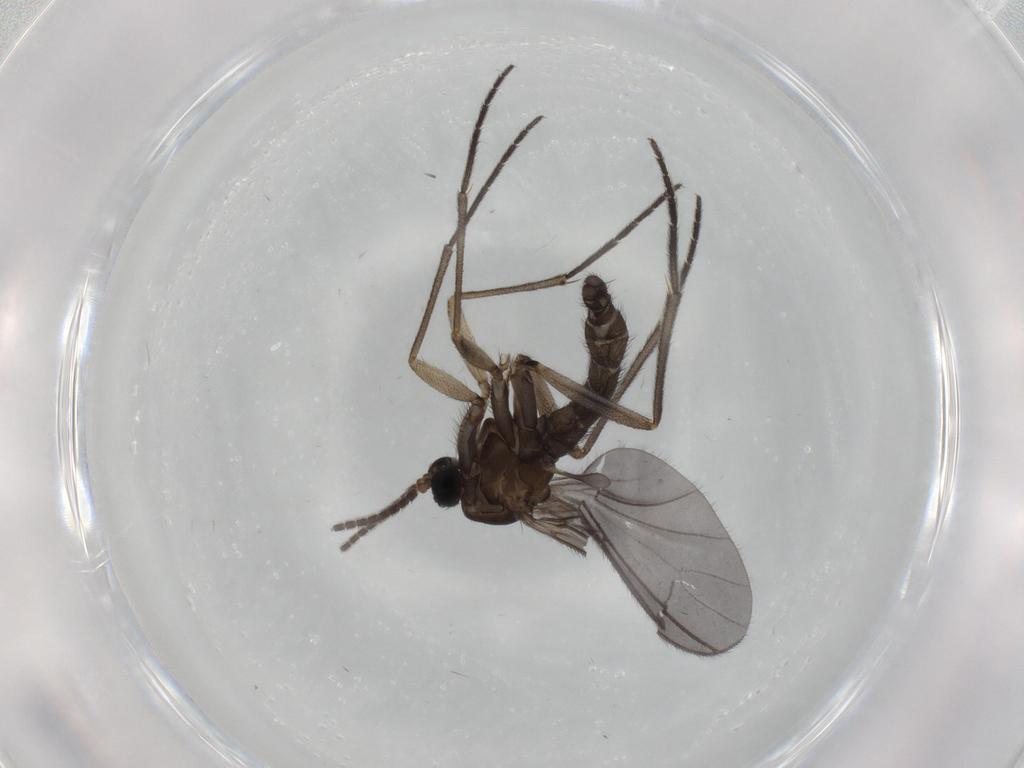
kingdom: Animalia
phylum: Arthropoda
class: Insecta
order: Diptera
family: Sciaridae
